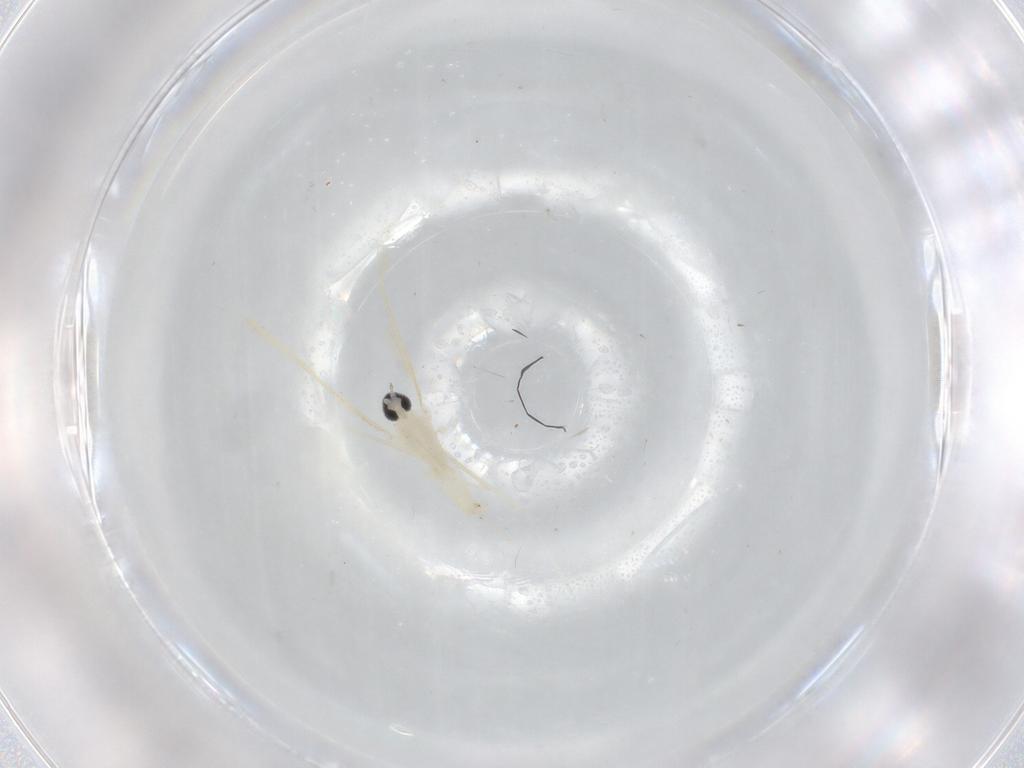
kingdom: Animalia
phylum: Arthropoda
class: Insecta
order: Diptera
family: Cecidomyiidae
